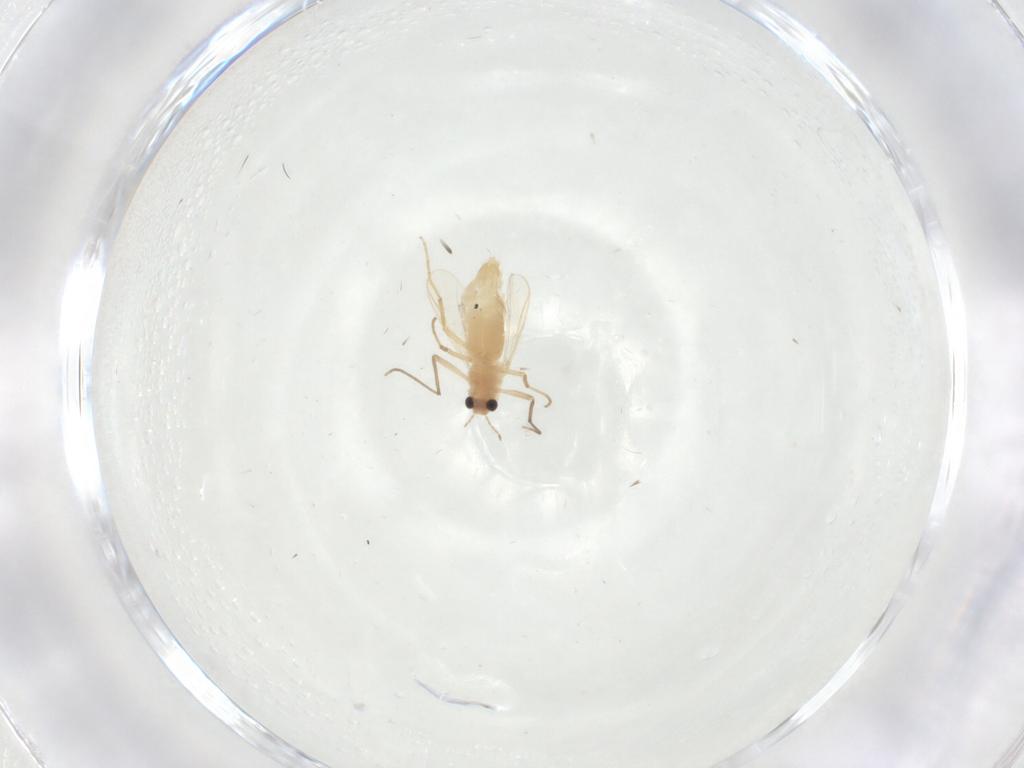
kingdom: Animalia
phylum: Arthropoda
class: Insecta
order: Diptera
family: Chironomidae
